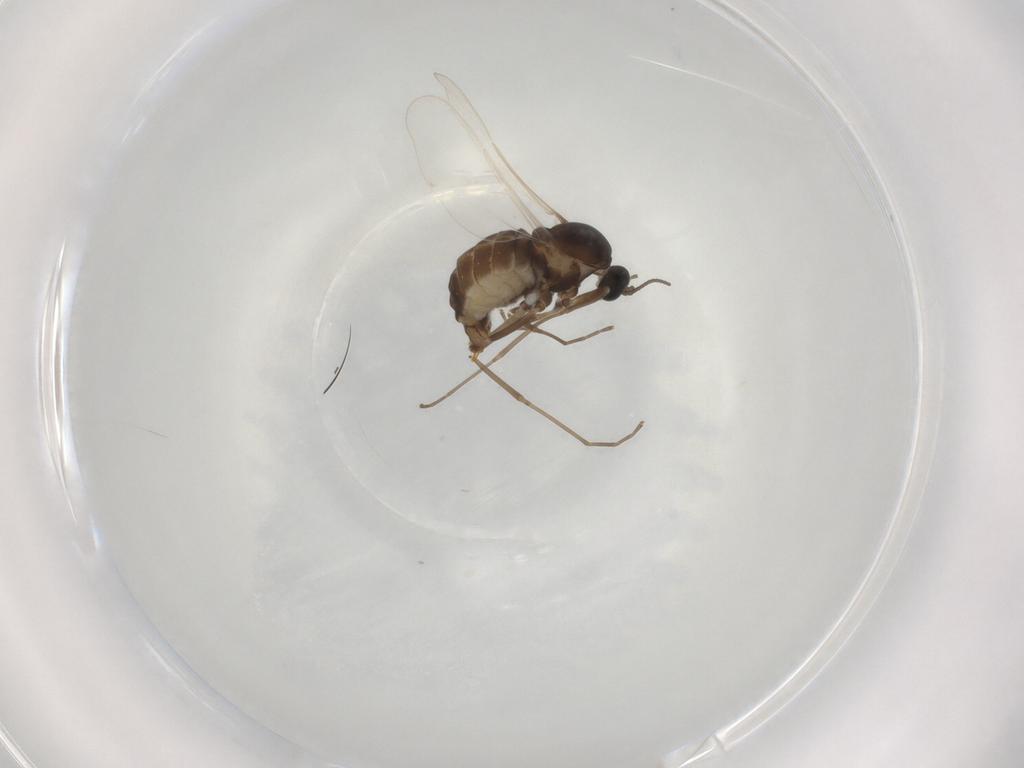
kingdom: Animalia
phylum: Arthropoda
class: Insecta
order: Diptera
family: Cecidomyiidae
